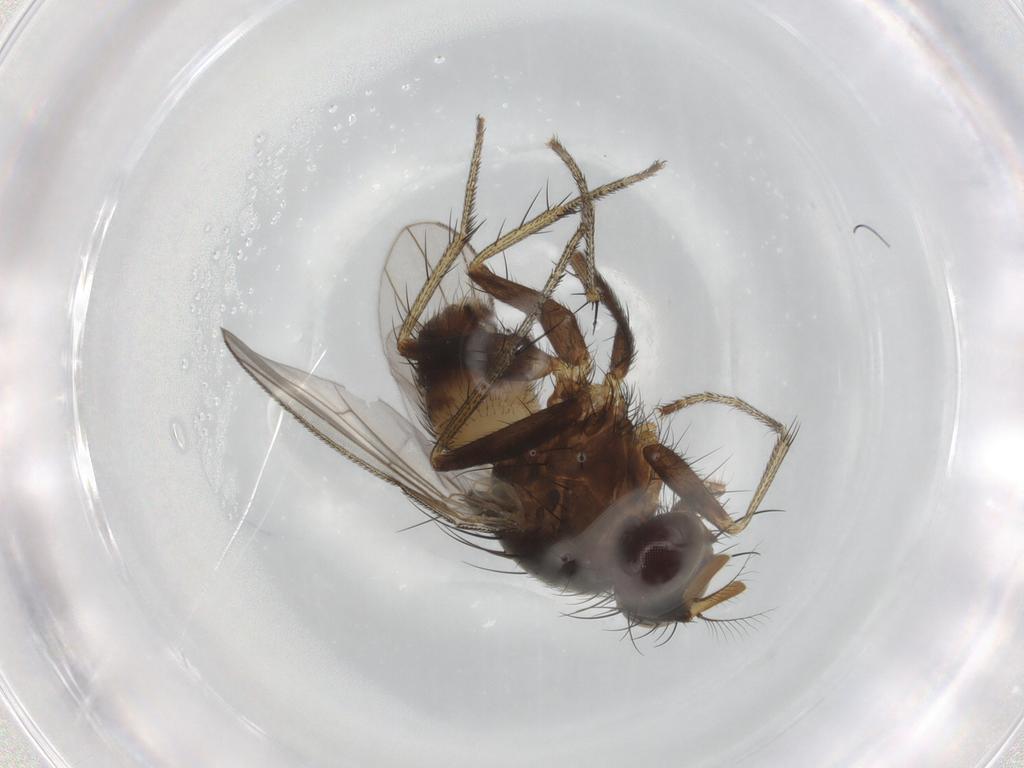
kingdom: Animalia
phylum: Arthropoda
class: Insecta
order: Diptera
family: Muscidae
